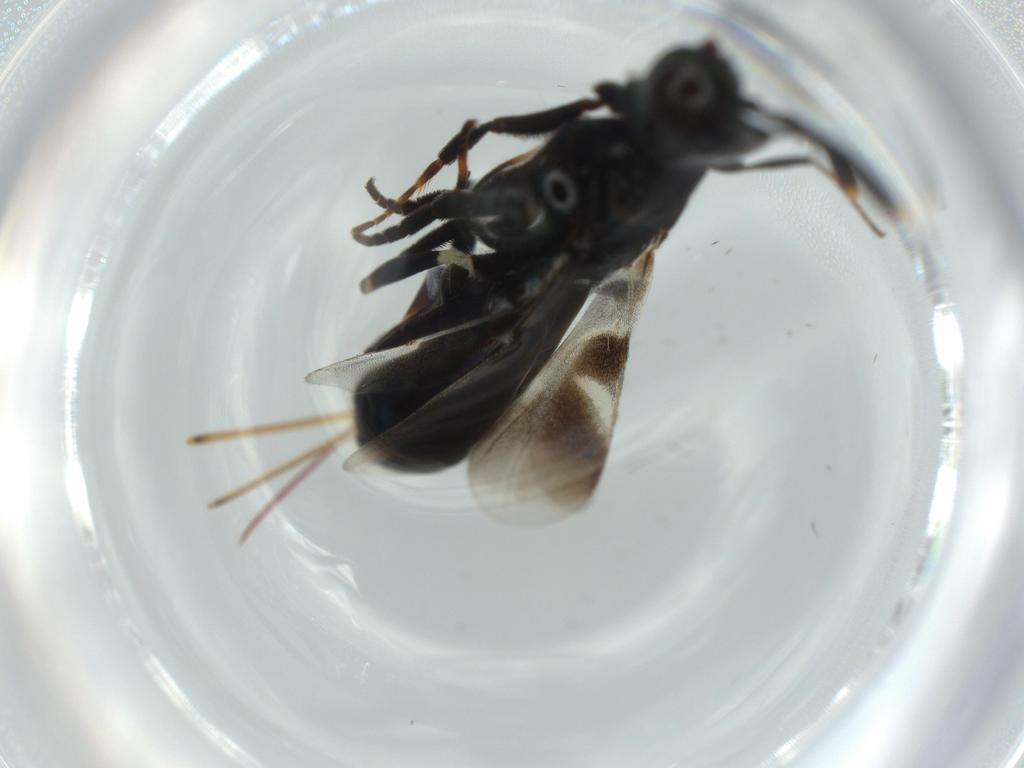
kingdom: Animalia
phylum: Arthropoda
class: Insecta
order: Hymenoptera
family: Eupelmidae
